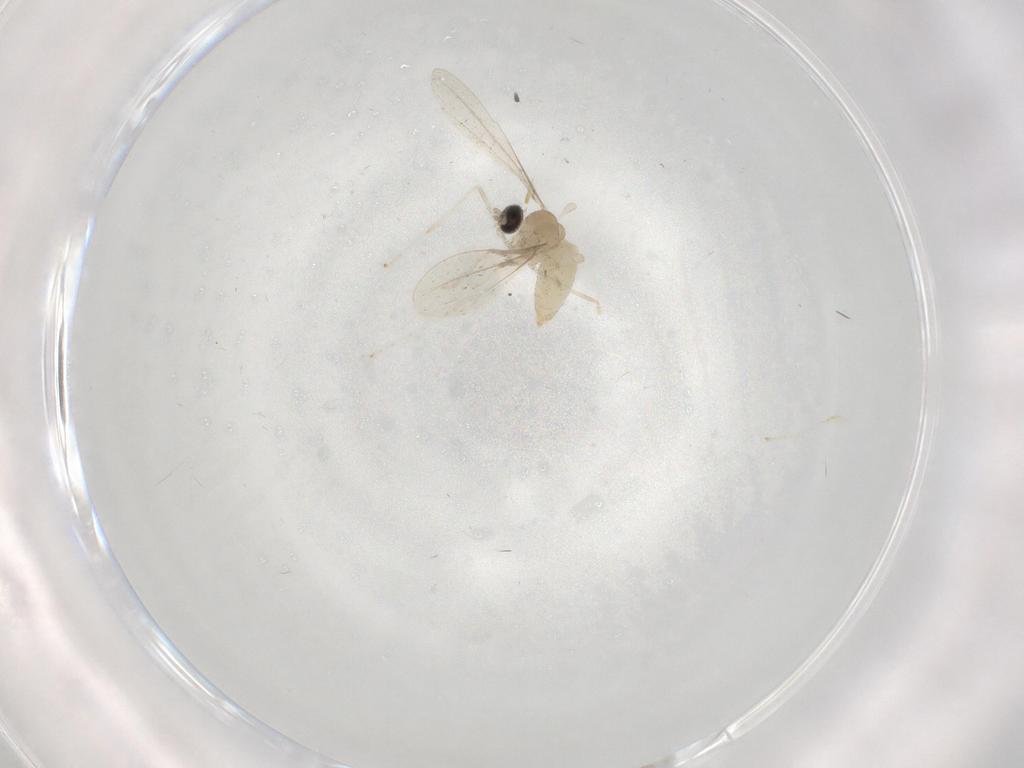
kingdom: Animalia
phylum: Arthropoda
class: Insecta
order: Diptera
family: Cecidomyiidae
